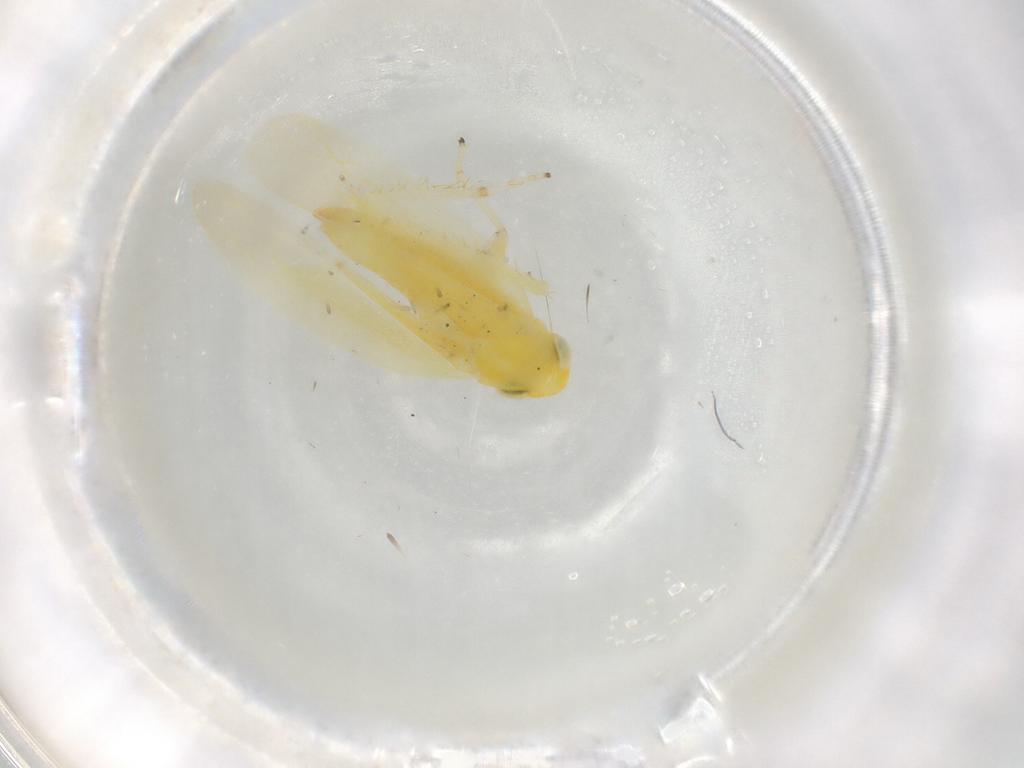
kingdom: Animalia
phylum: Arthropoda
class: Insecta
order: Hemiptera
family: Cicadellidae
